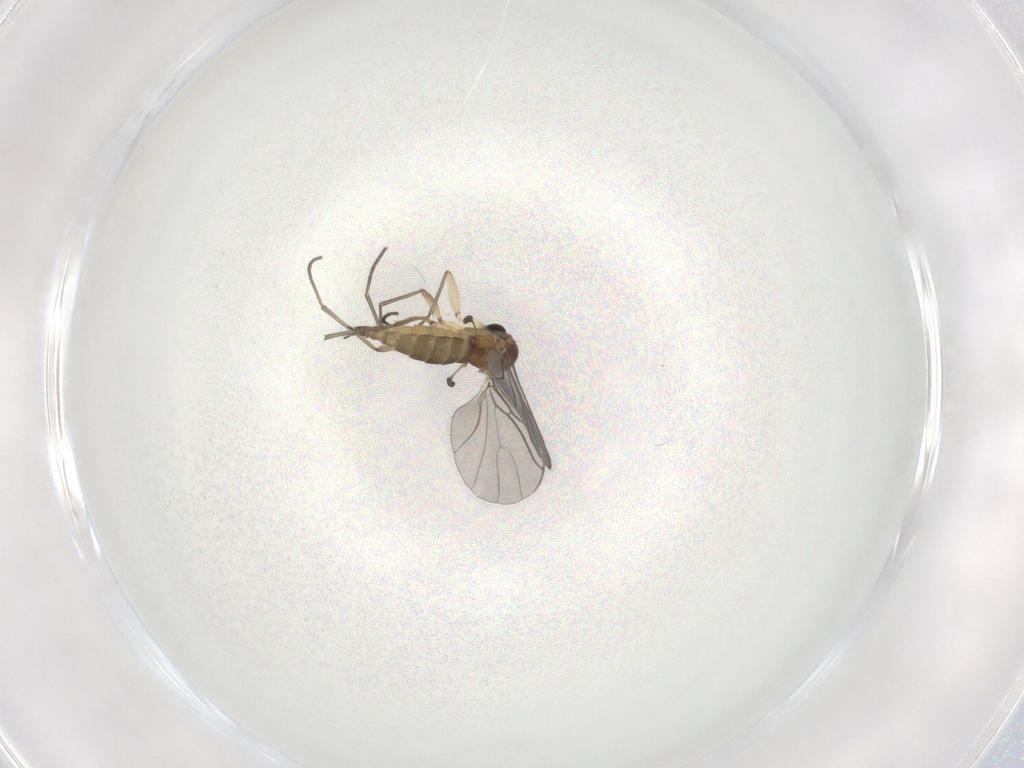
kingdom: Animalia
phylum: Arthropoda
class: Insecta
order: Diptera
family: Sciaridae
